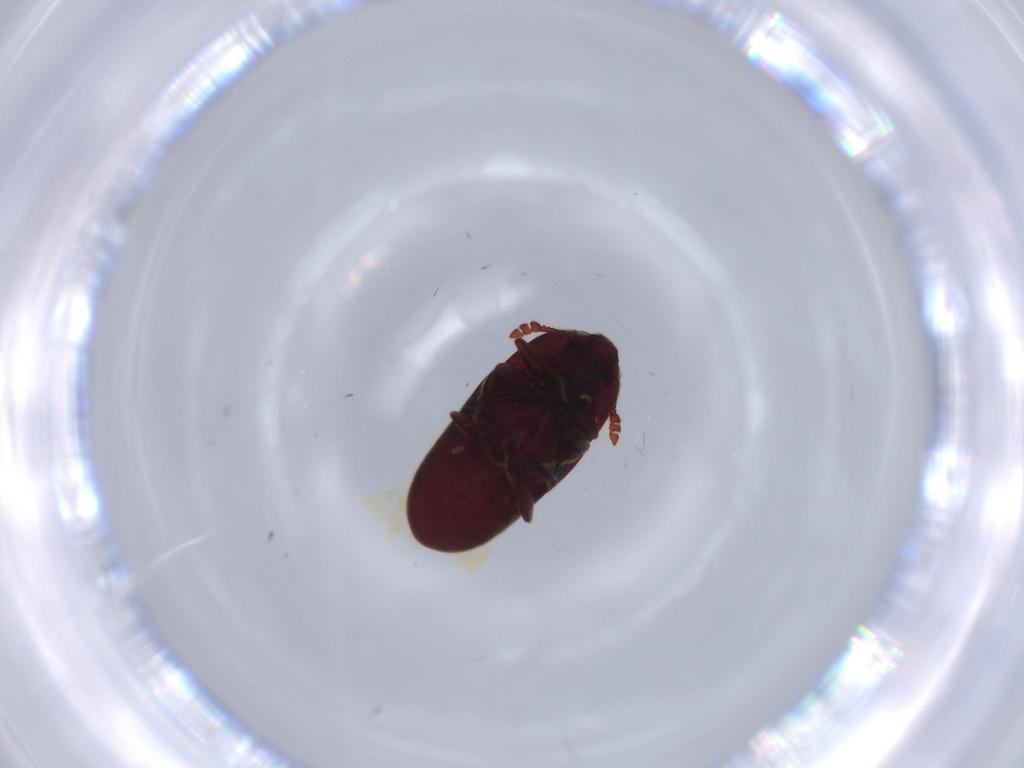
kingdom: Animalia
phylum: Arthropoda
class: Insecta
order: Coleoptera
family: Throscidae
